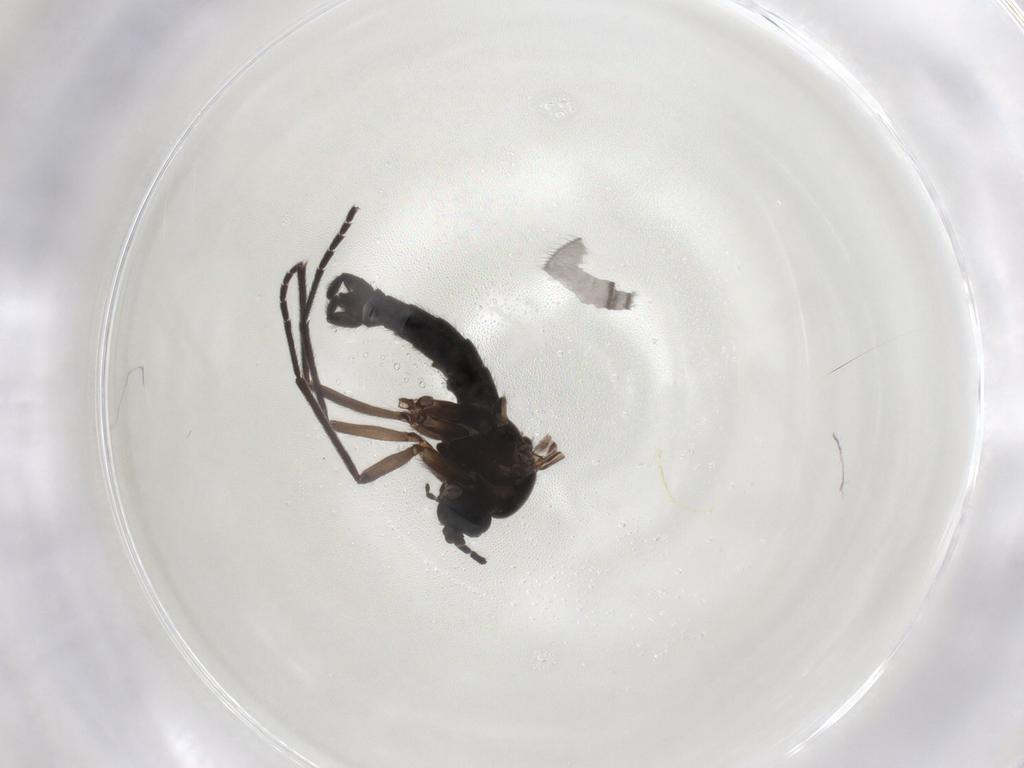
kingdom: Animalia
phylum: Arthropoda
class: Insecta
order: Diptera
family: Sciaridae
